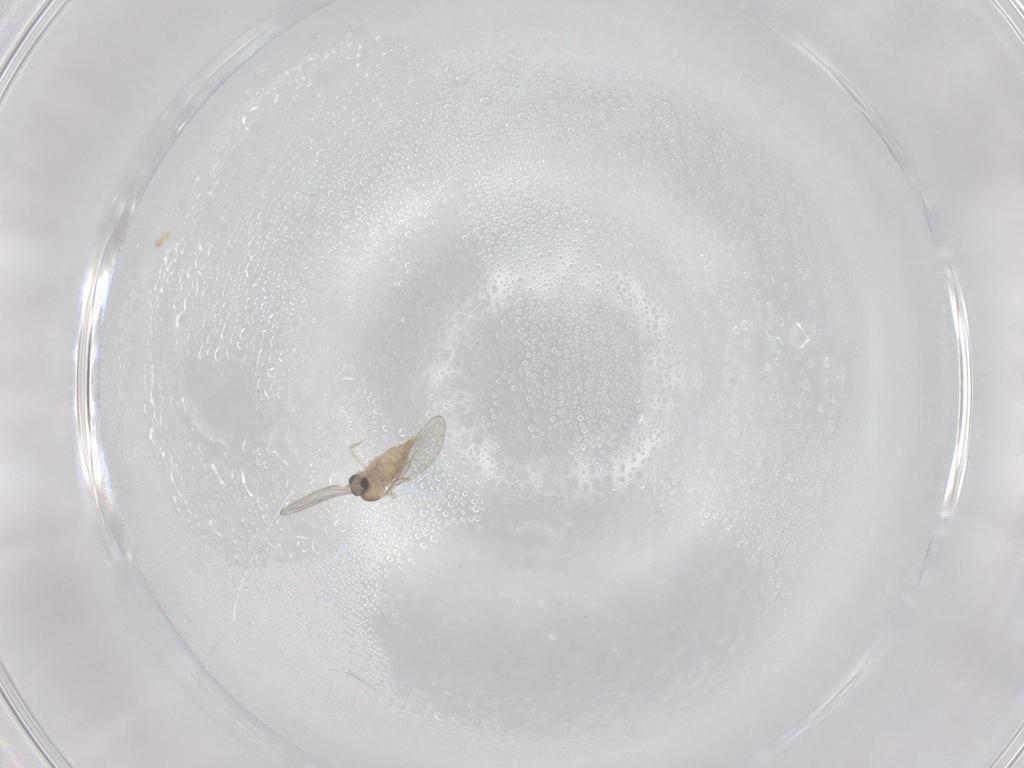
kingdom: Animalia
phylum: Arthropoda
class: Insecta
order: Diptera
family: Cecidomyiidae
